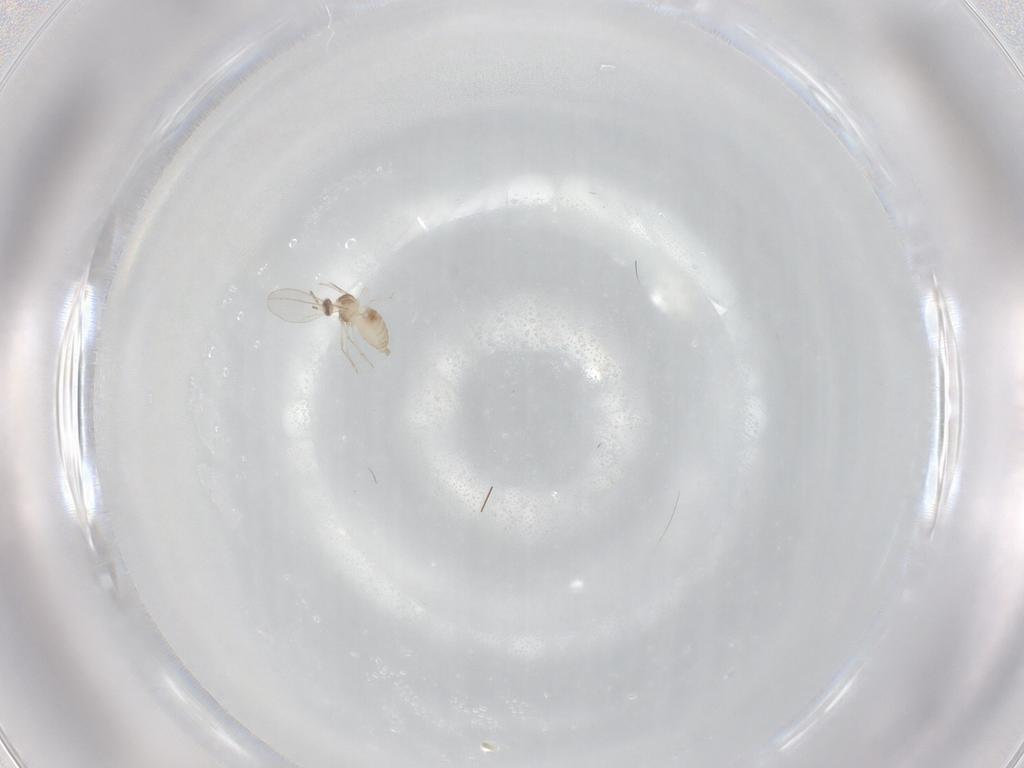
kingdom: Animalia
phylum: Arthropoda
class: Insecta
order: Diptera
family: Cecidomyiidae
